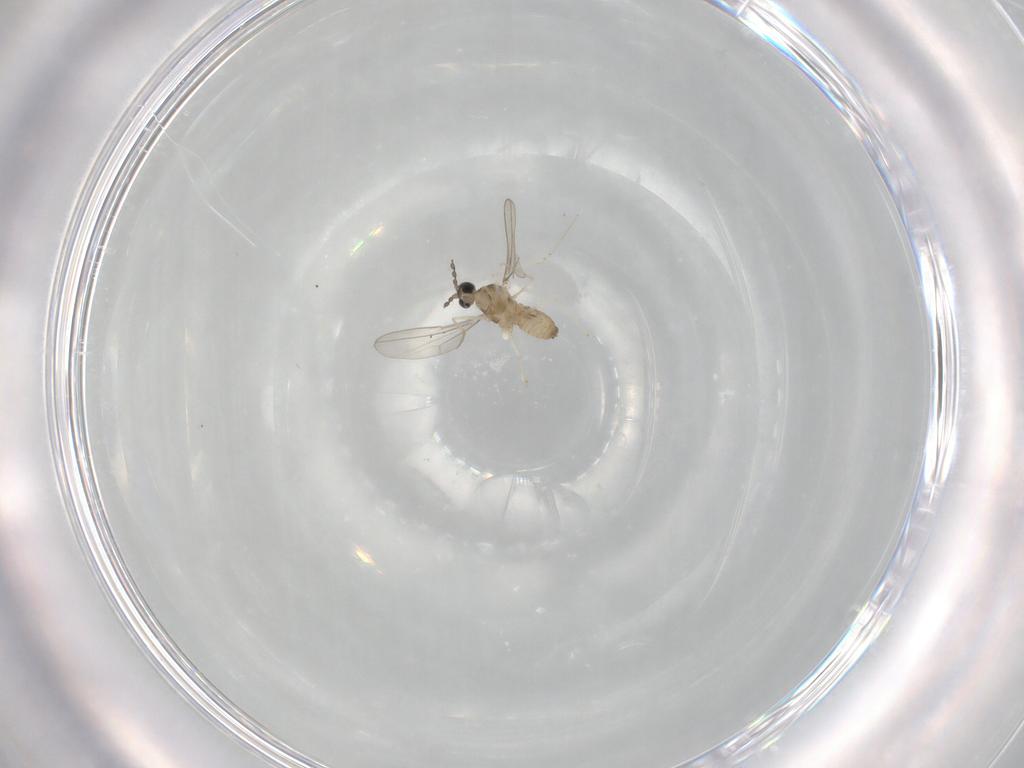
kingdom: Animalia
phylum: Arthropoda
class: Insecta
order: Diptera
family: Cecidomyiidae
